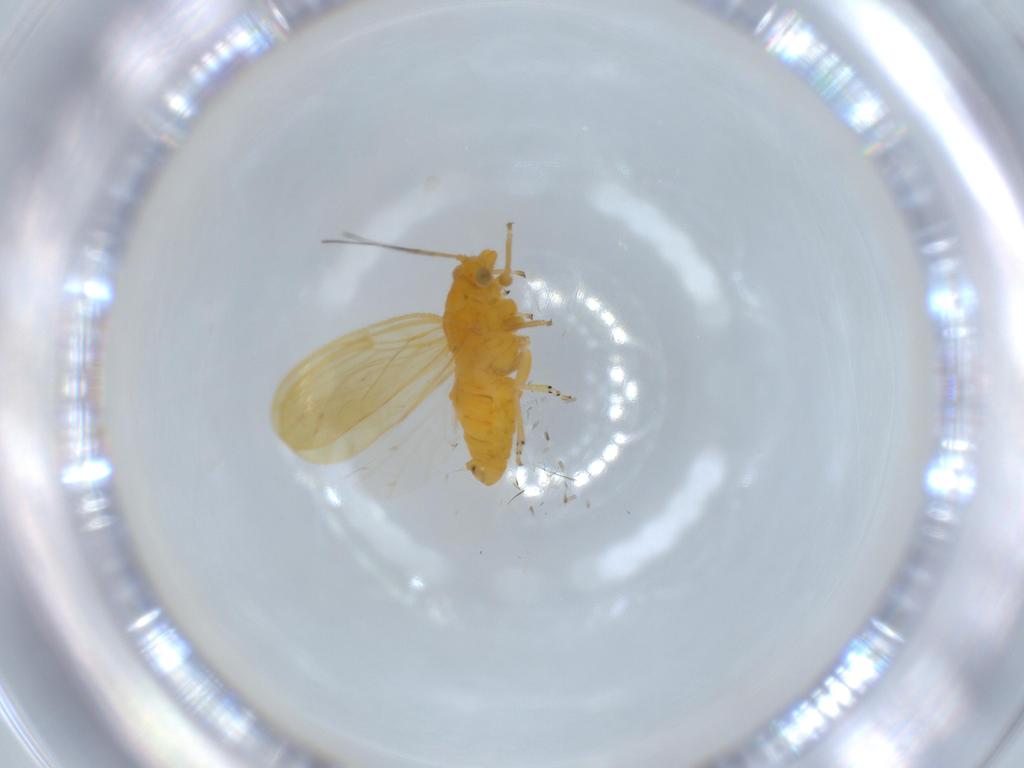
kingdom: Animalia
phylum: Arthropoda
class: Insecta
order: Hemiptera
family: Psyllidae
